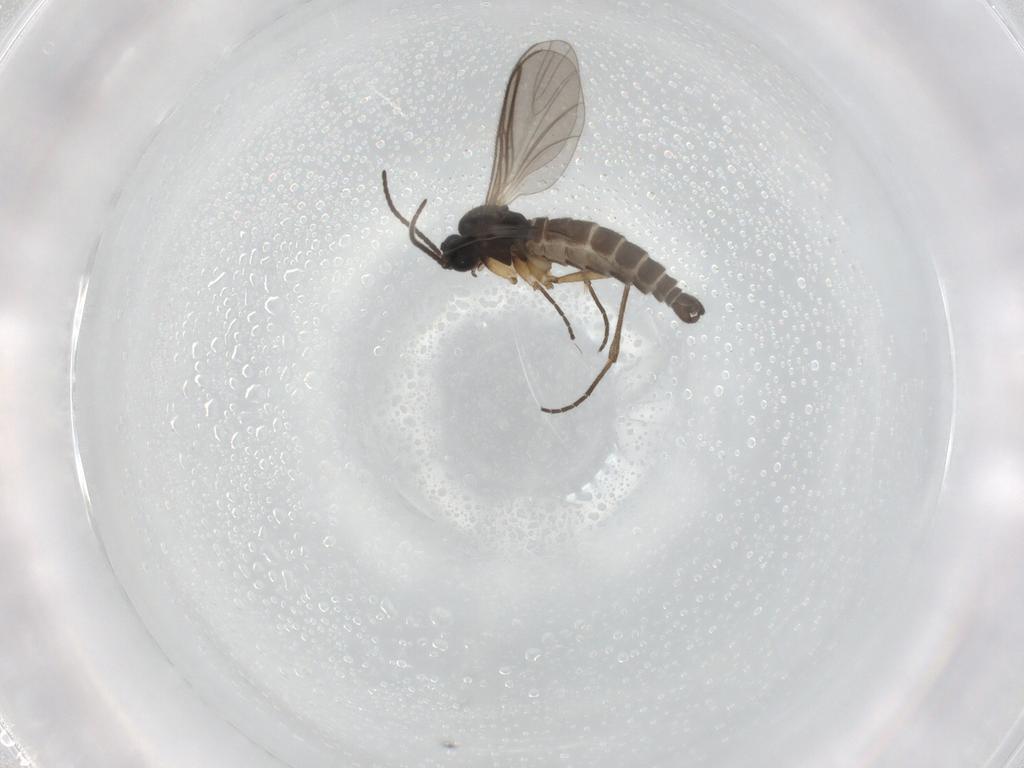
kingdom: Animalia
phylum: Arthropoda
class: Insecta
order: Diptera
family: Sciaridae
